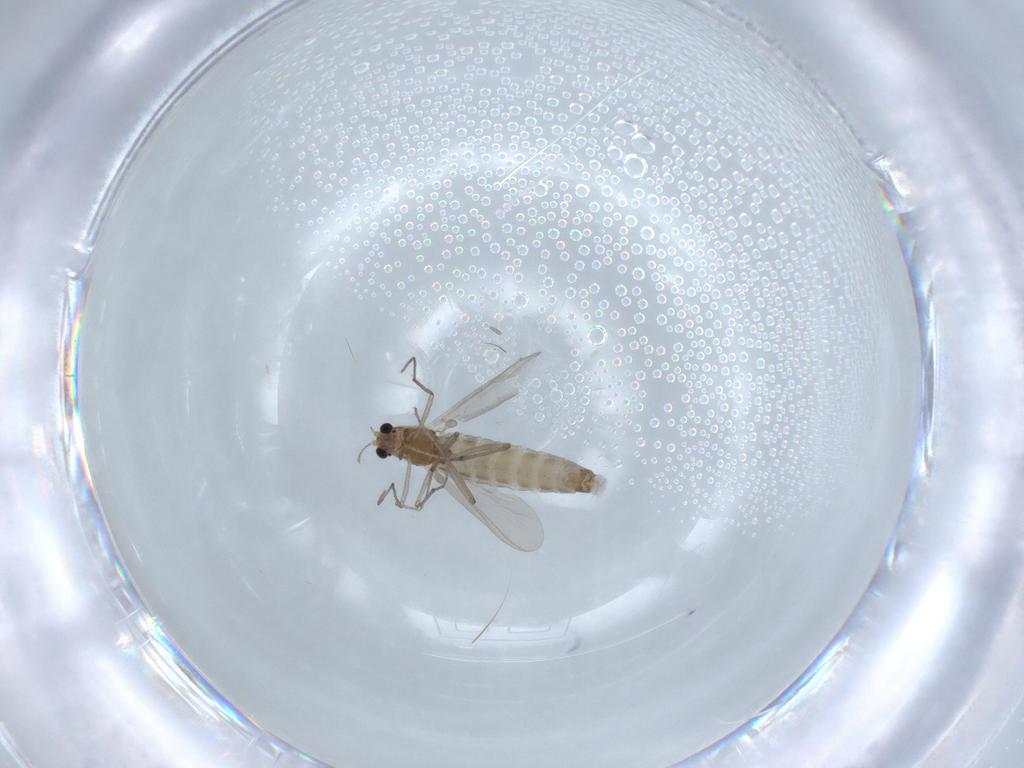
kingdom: Animalia
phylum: Arthropoda
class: Insecta
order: Diptera
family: Chironomidae
